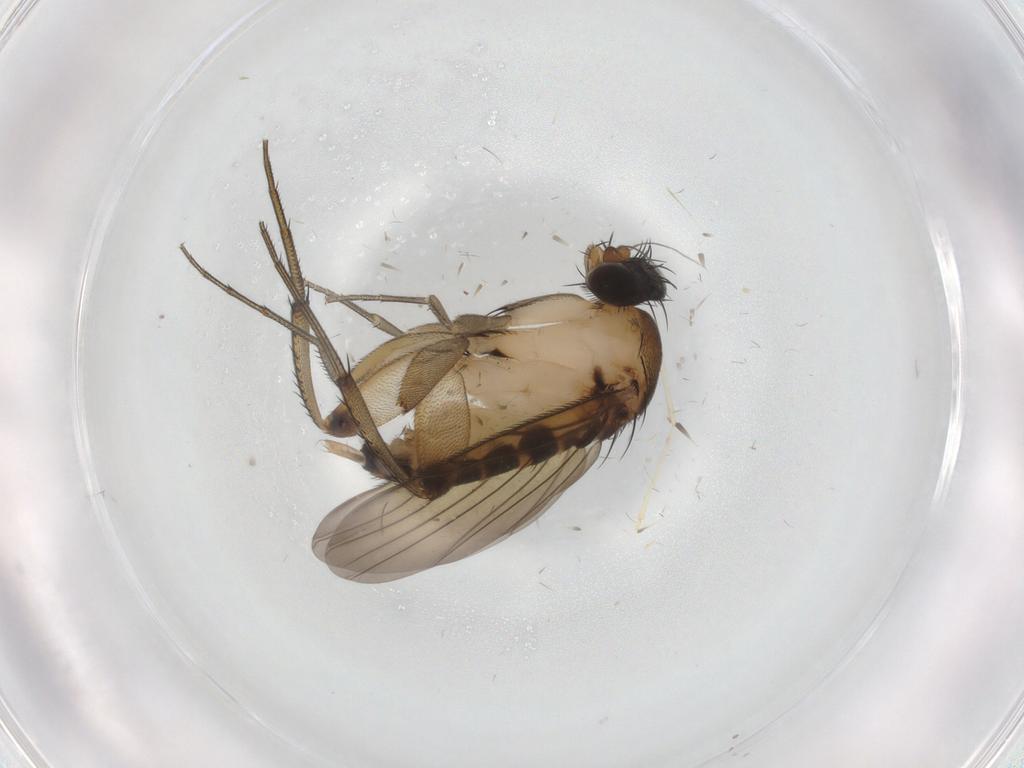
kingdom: Animalia
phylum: Arthropoda
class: Insecta
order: Diptera
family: Phoridae
